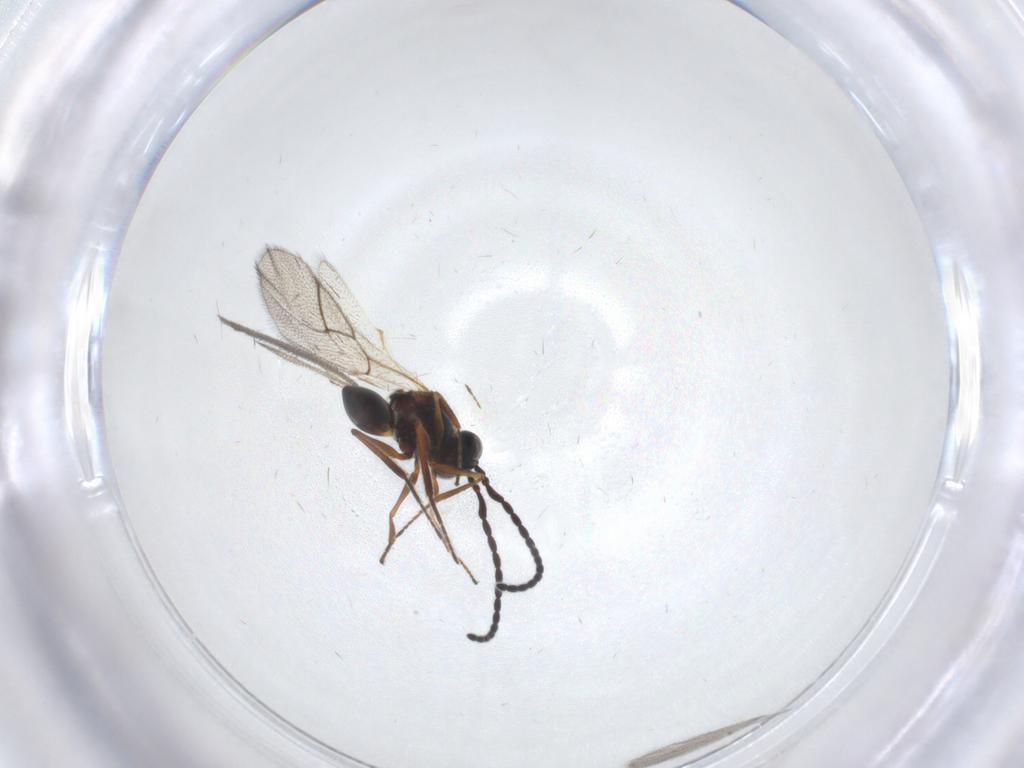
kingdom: Animalia
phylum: Arthropoda
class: Insecta
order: Hymenoptera
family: Figitidae
